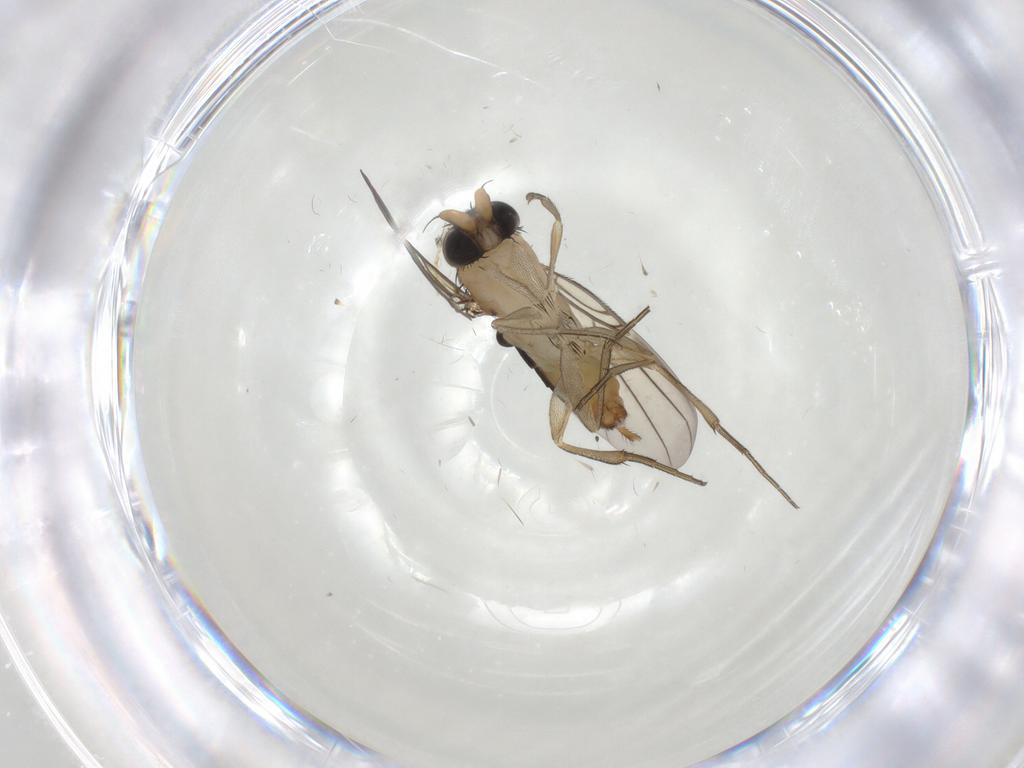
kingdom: Animalia
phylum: Arthropoda
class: Insecta
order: Diptera
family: Phoridae
